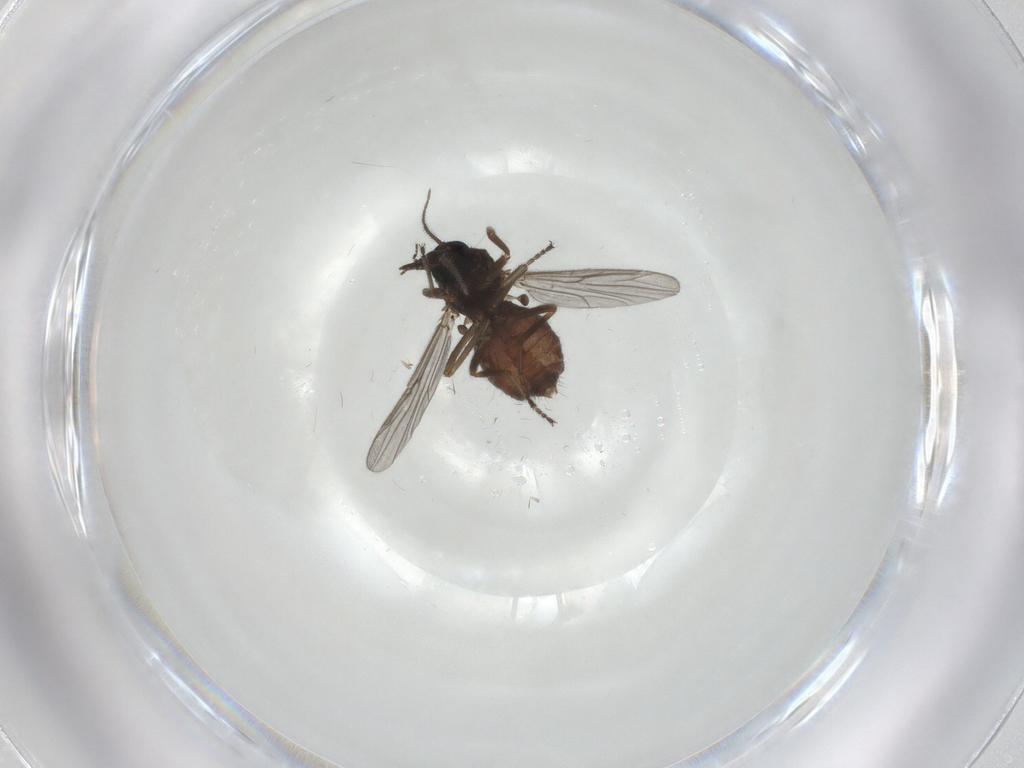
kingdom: Animalia
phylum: Arthropoda
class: Insecta
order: Diptera
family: Ceratopogonidae
